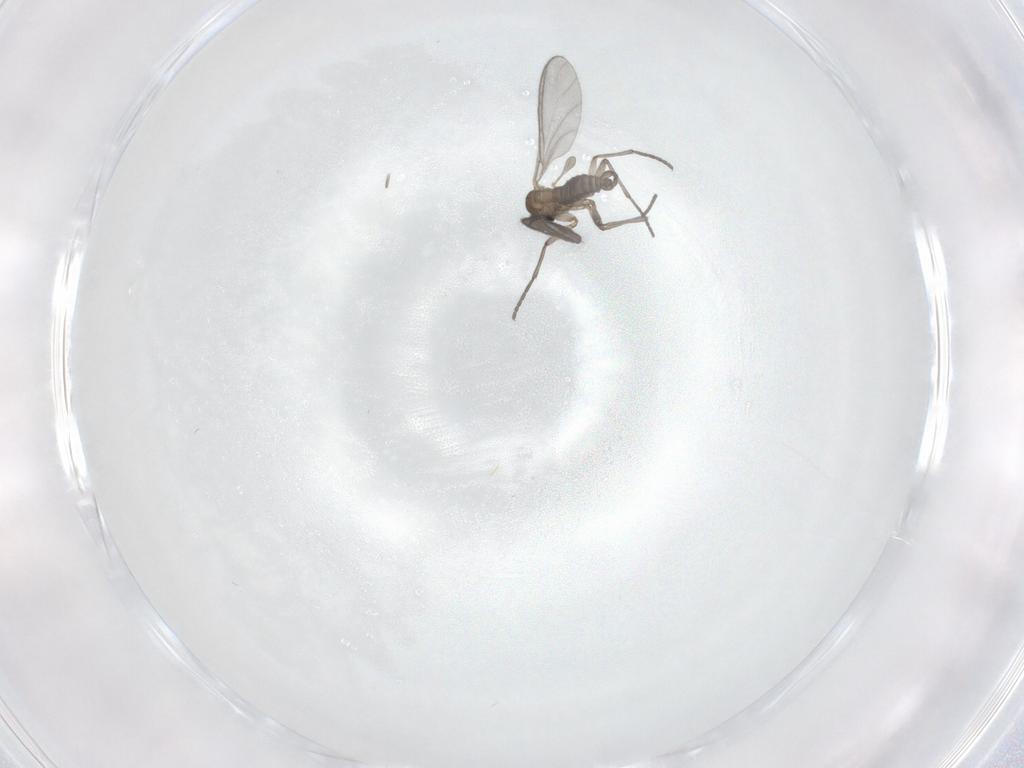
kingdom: Animalia
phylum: Arthropoda
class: Insecta
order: Diptera
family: Sciaridae
